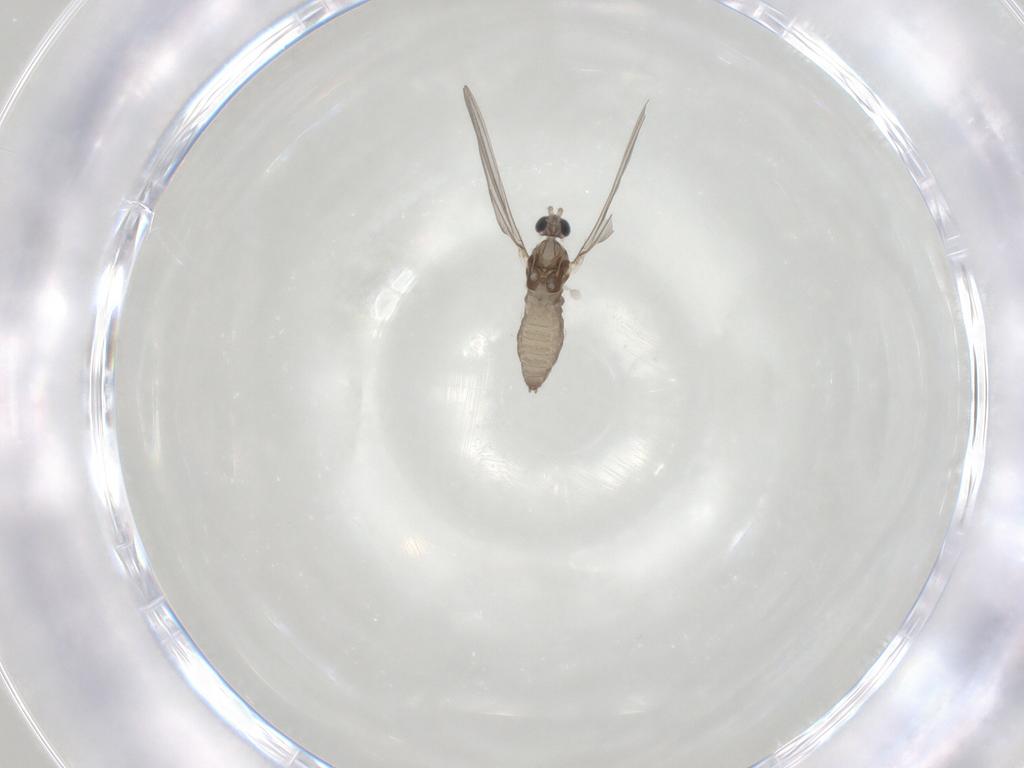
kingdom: Animalia
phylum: Arthropoda
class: Insecta
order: Diptera
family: Cecidomyiidae
